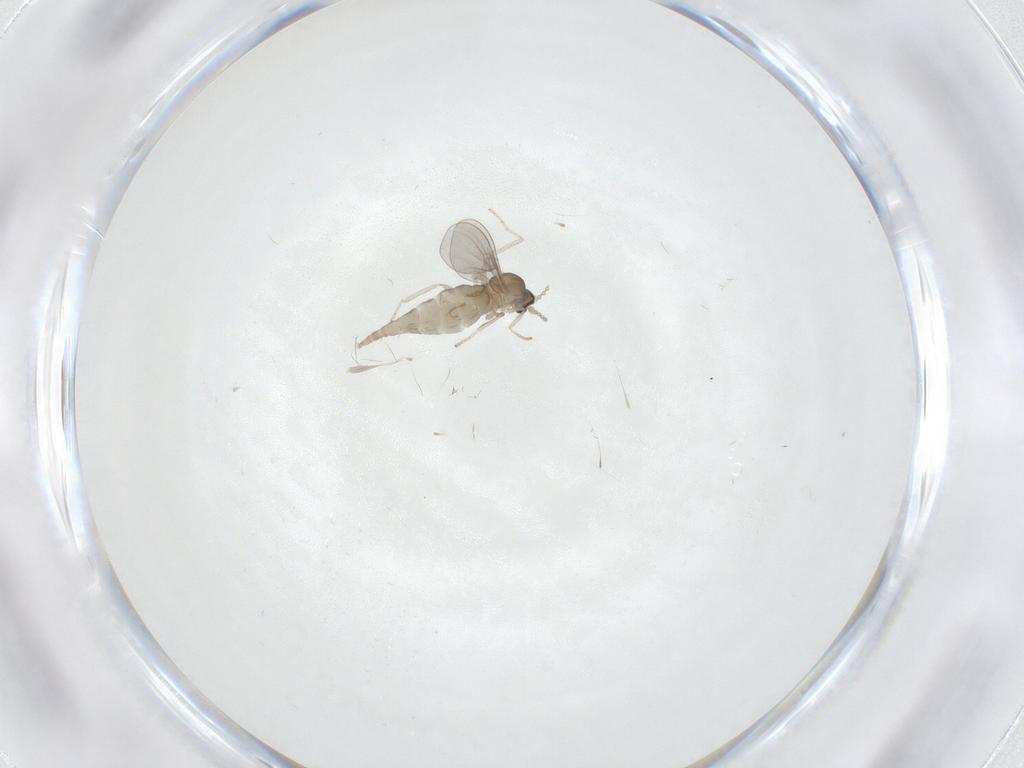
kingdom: Animalia
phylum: Arthropoda
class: Insecta
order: Diptera
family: Cecidomyiidae
